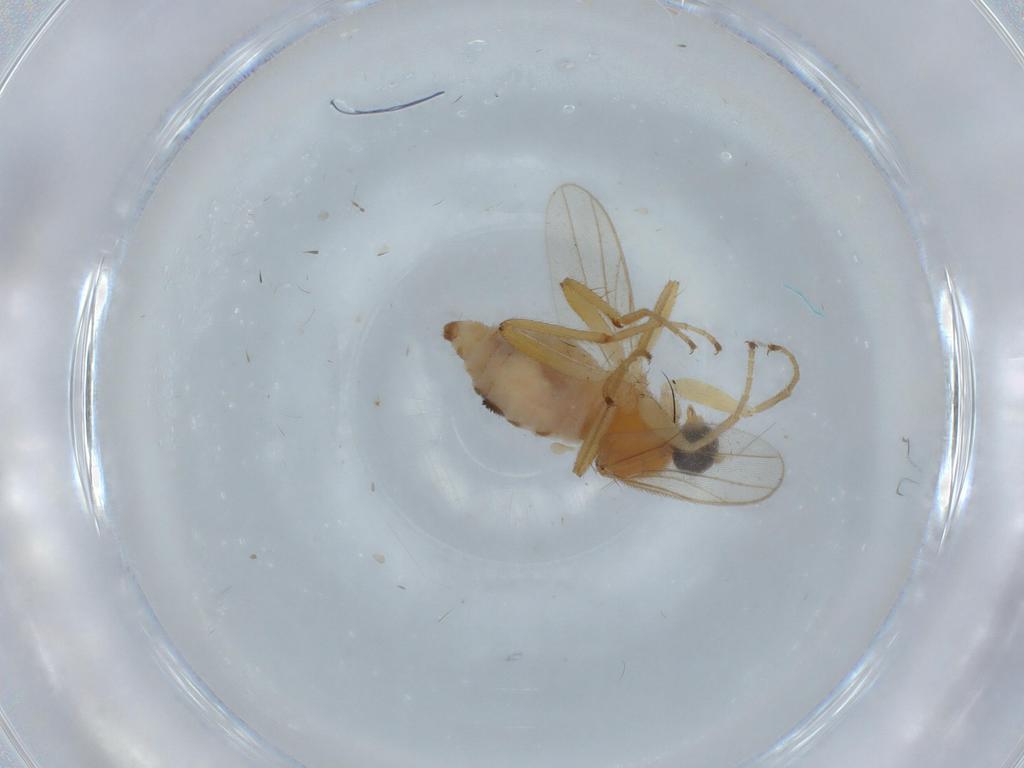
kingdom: Animalia
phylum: Arthropoda
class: Insecta
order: Diptera
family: Hybotidae
